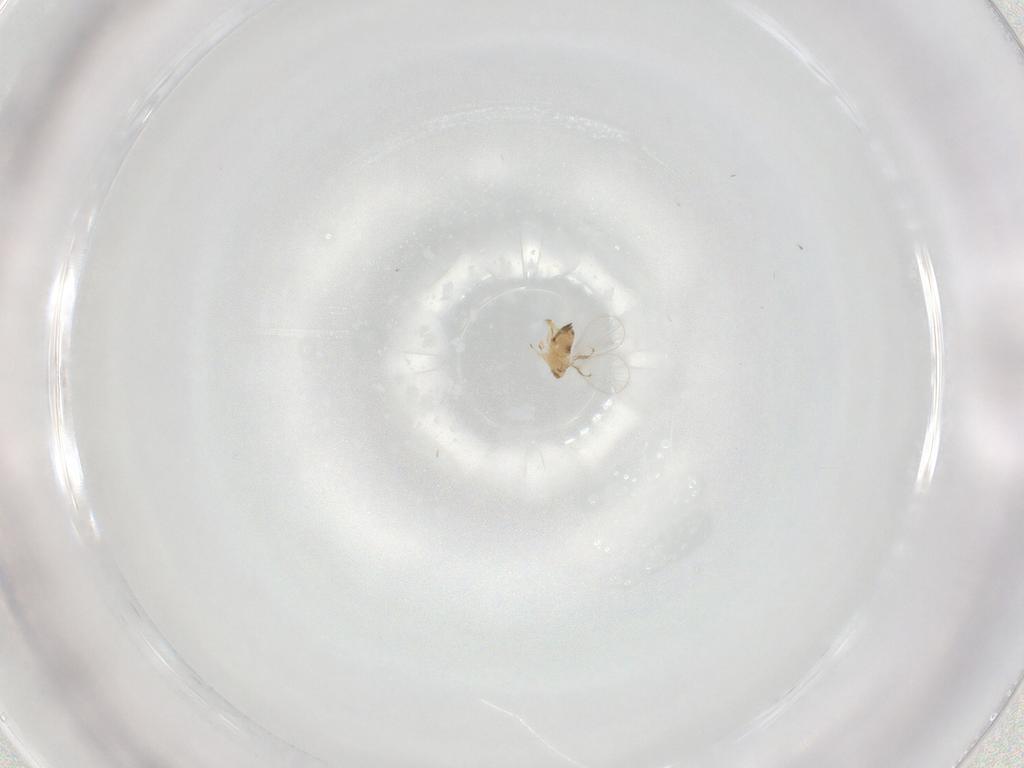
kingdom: Animalia
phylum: Arthropoda
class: Insecta
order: Hymenoptera
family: Trichogrammatidae
